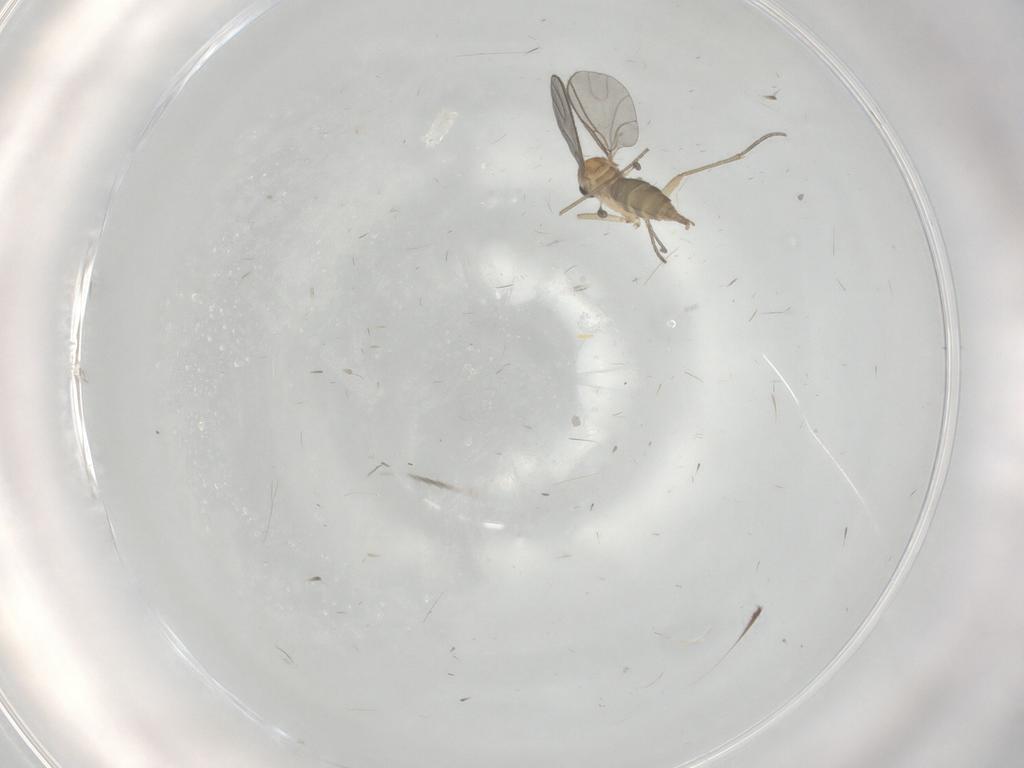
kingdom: Animalia
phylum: Arthropoda
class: Insecta
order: Diptera
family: Sciaridae
